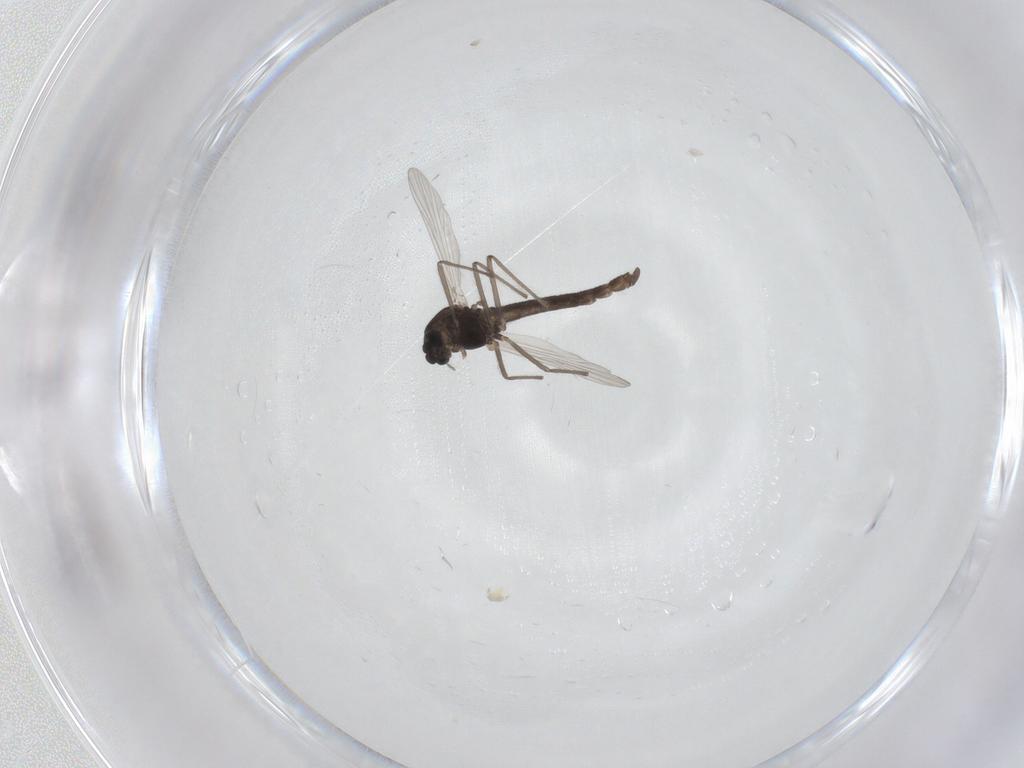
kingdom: Animalia
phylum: Arthropoda
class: Insecta
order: Diptera
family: Chironomidae
